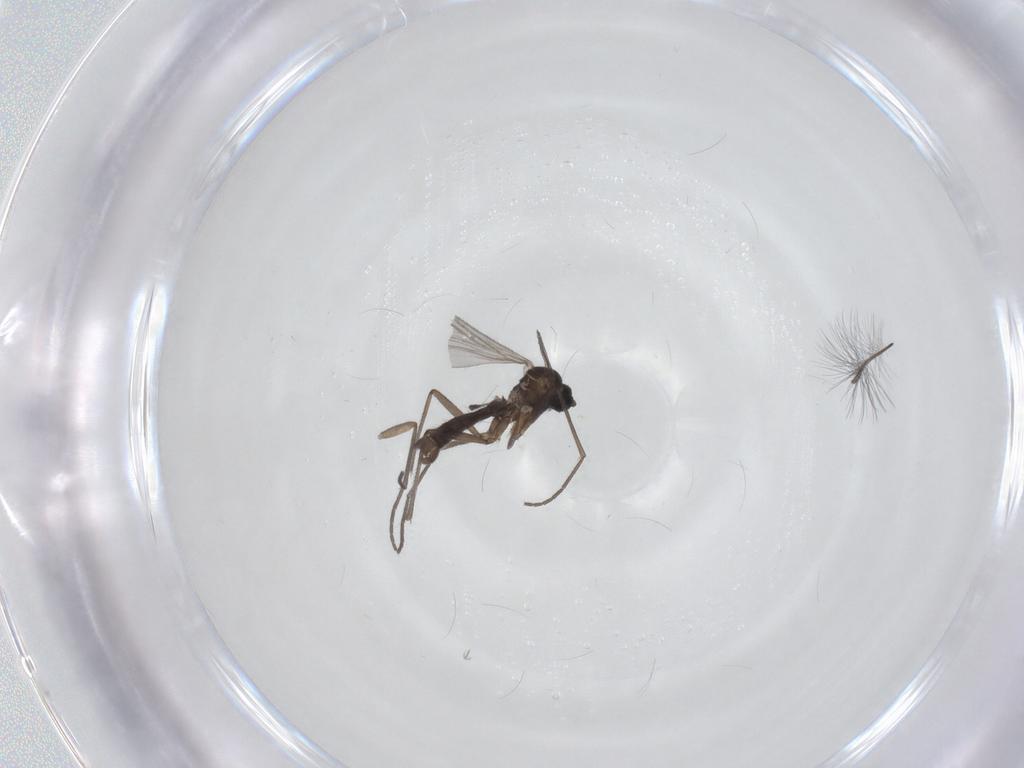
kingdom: Animalia
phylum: Arthropoda
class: Insecta
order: Diptera
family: Sciaridae
